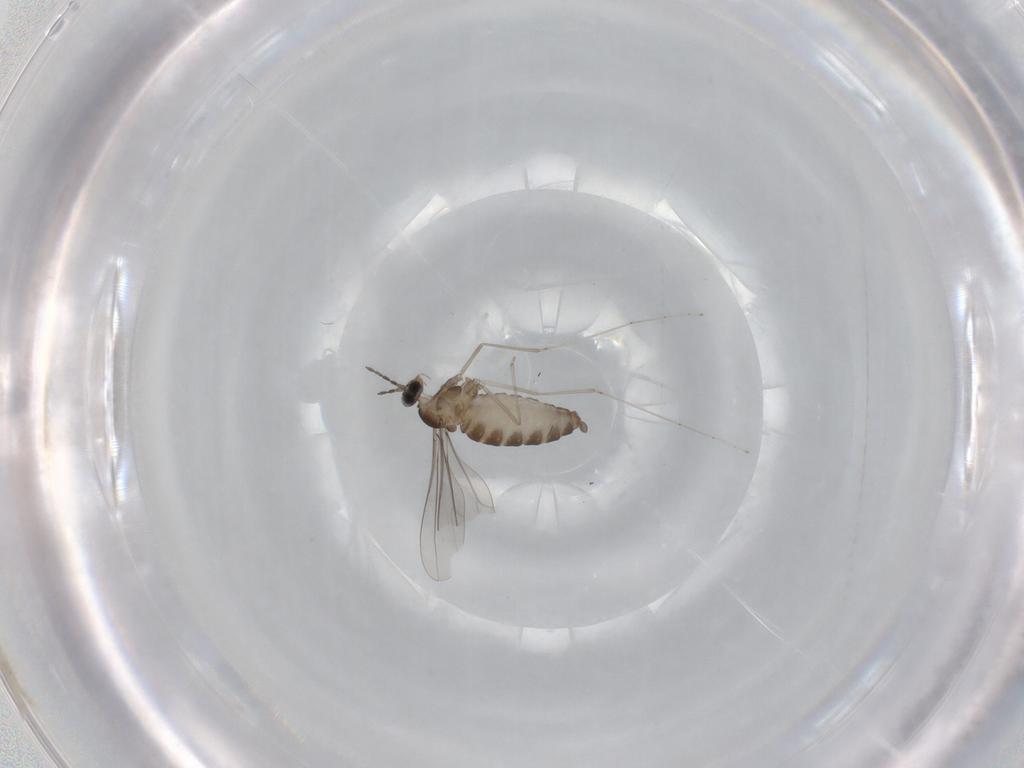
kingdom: Animalia
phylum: Arthropoda
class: Insecta
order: Diptera
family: Cecidomyiidae
